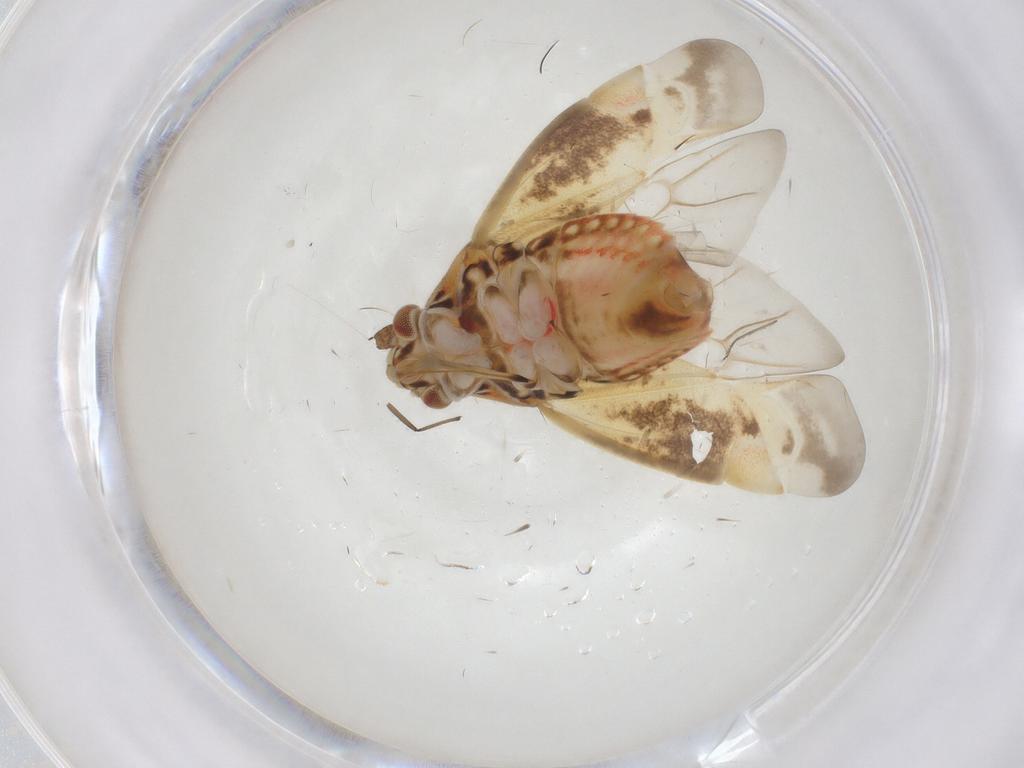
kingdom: Animalia
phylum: Arthropoda
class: Insecta
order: Hemiptera
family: Miridae
